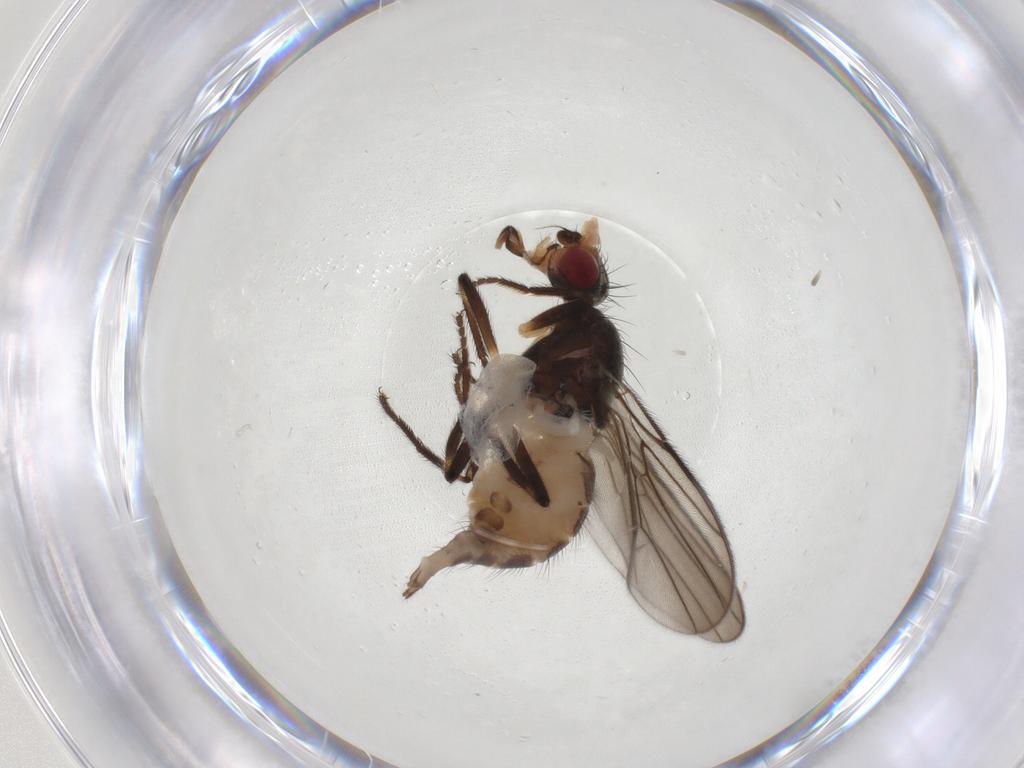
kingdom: Animalia
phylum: Arthropoda
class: Insecta
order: Diptera
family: Chloropidae
